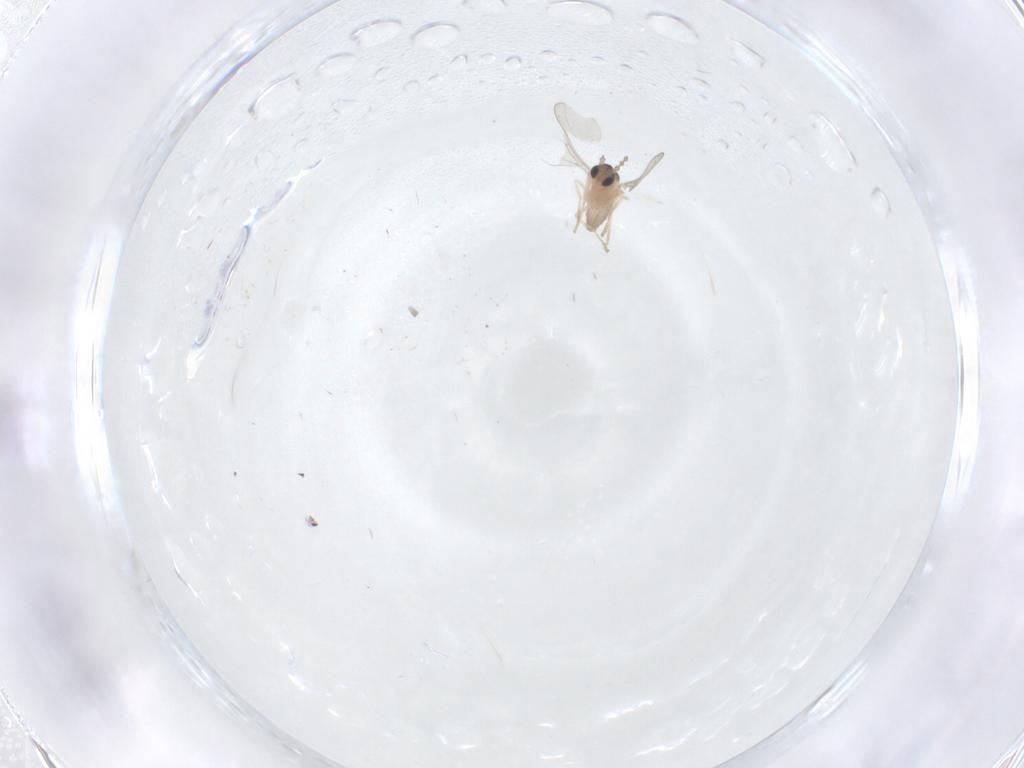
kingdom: Animalia
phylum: Arthropoda
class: Insecta
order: Diptera
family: Cecidomyiidae
